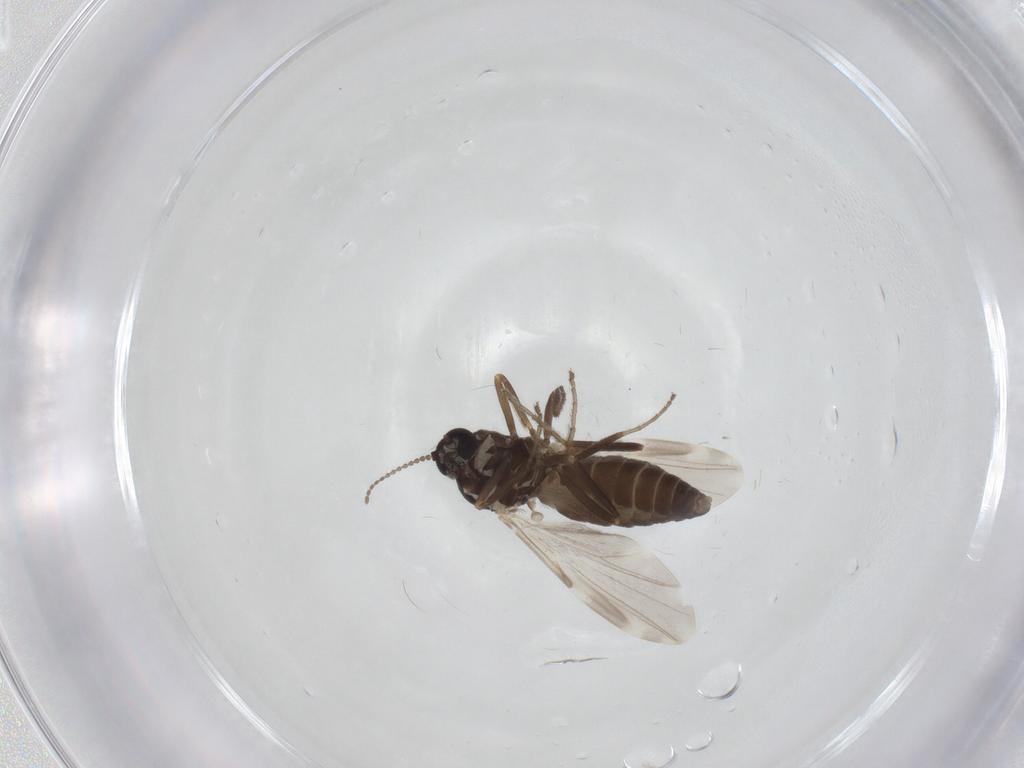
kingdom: Animalia
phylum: Arthropoda
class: Insecta
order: Diptera
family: Ceratopogonidae
